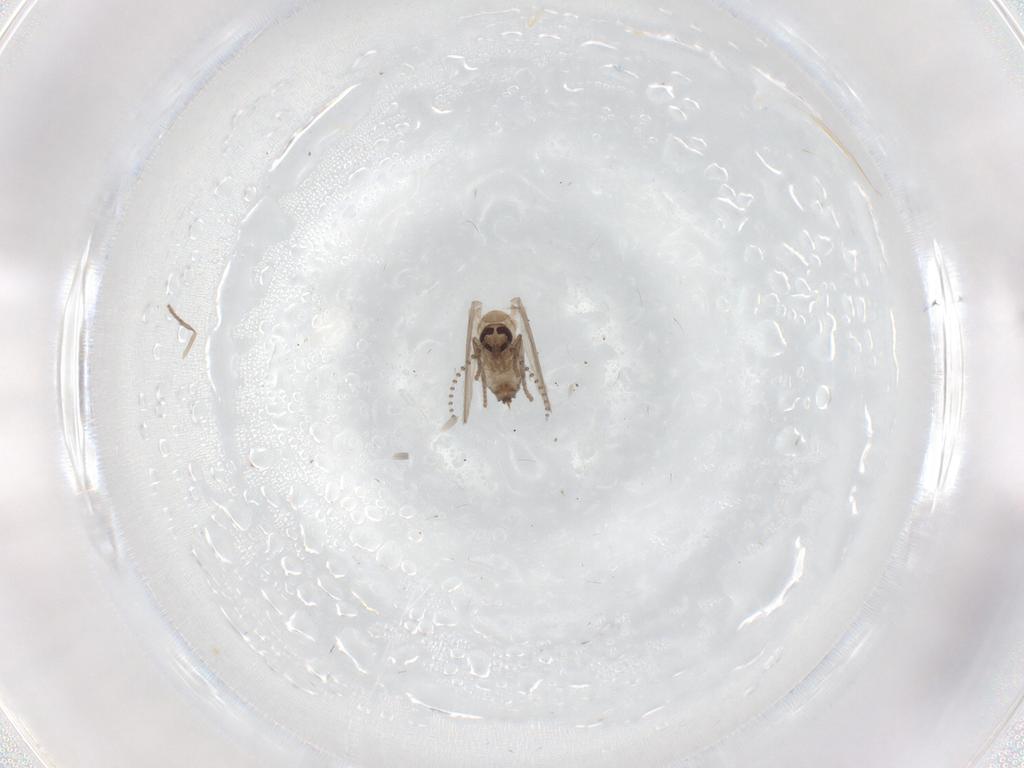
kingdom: Animalia
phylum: Arthropoda
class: Insecta
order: Diptera
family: Psychodidae
